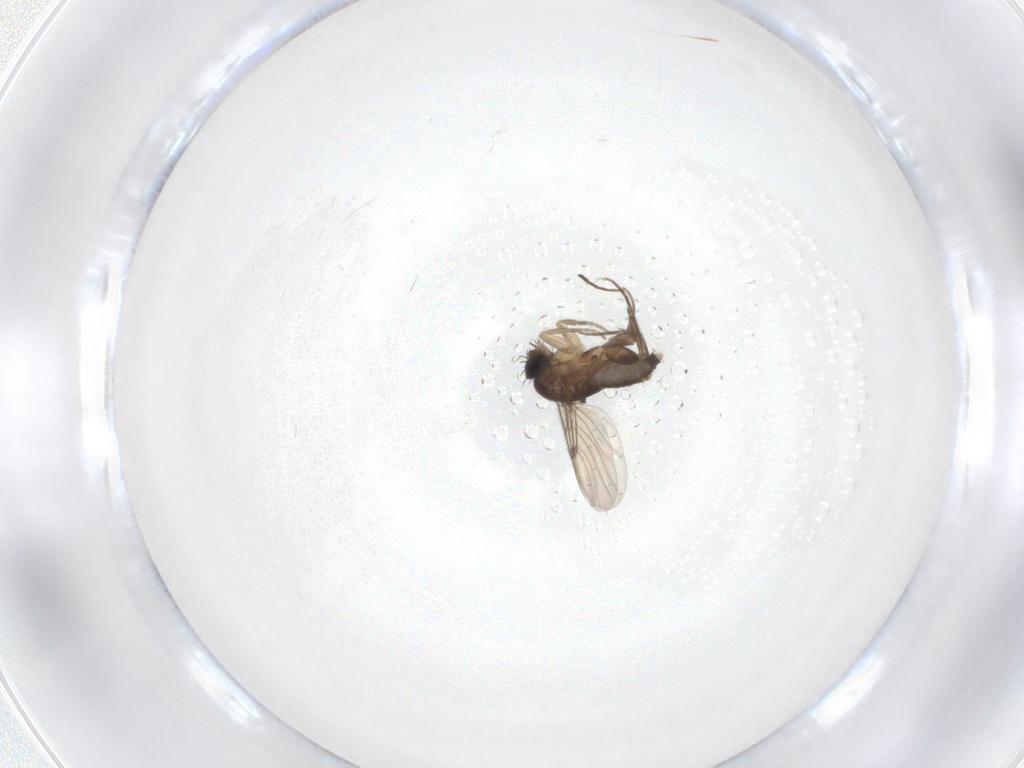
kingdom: Animalia
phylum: Arthropoda
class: Insecta
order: Diptera
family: Phoridae
